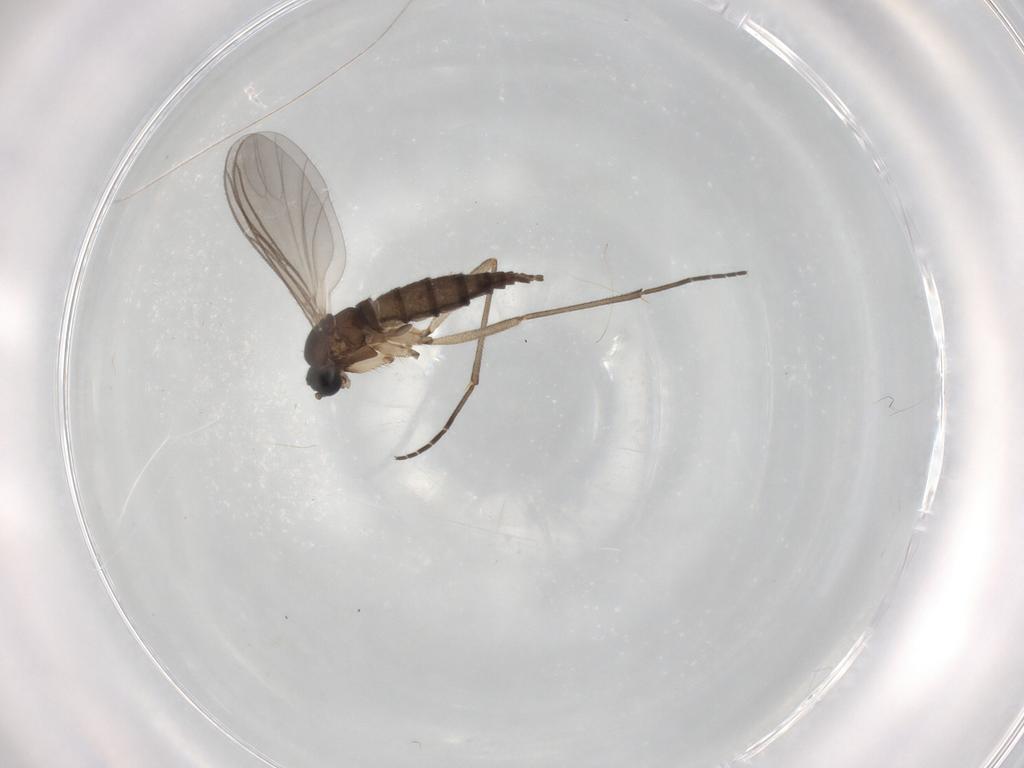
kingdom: Animalia
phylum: Arthropoda
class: Insecta
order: Diptera
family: Sciaridae
